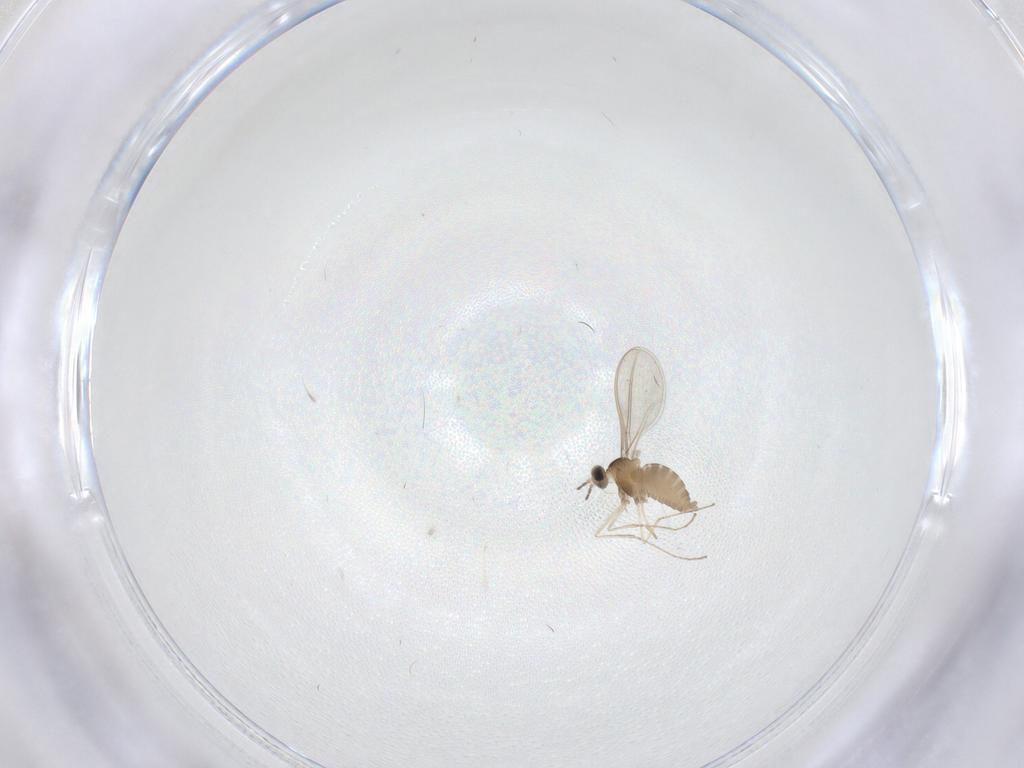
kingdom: Animalia
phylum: Arthropoda
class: Insecta
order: Diptera
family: Cecidomyiidae
